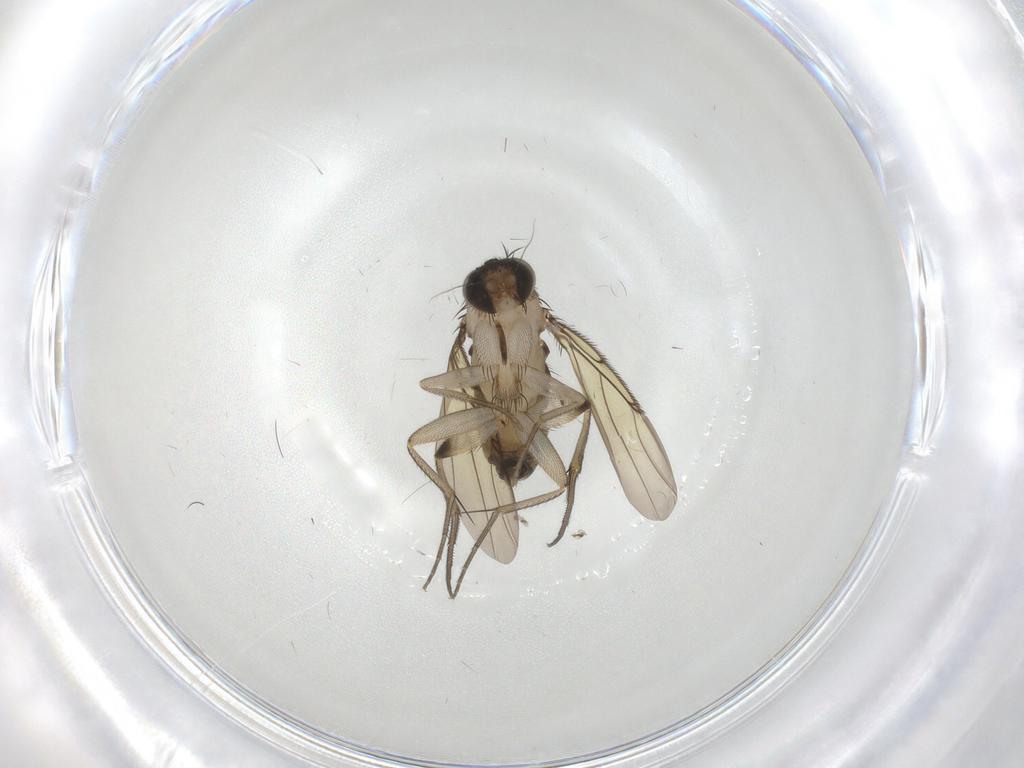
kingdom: Animalia
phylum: Arthropoda
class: Insecta
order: Diptera
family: Phoridae
